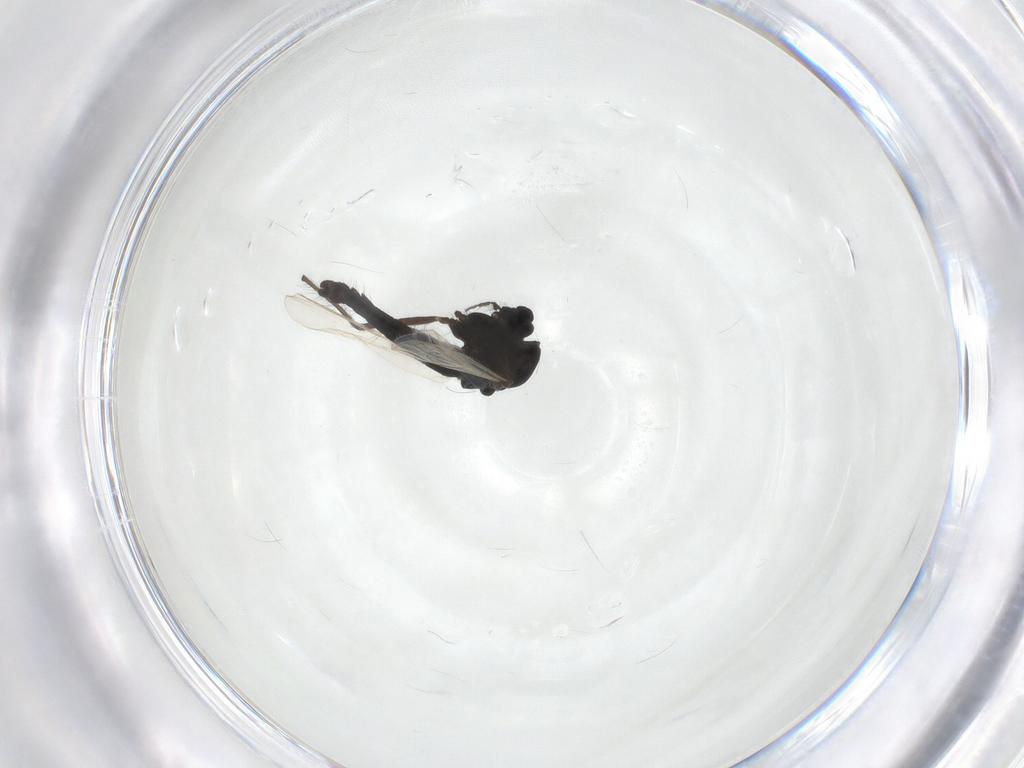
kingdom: Animalia
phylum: Arthropoda
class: Insecta
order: Diptera
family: Chironomidae
